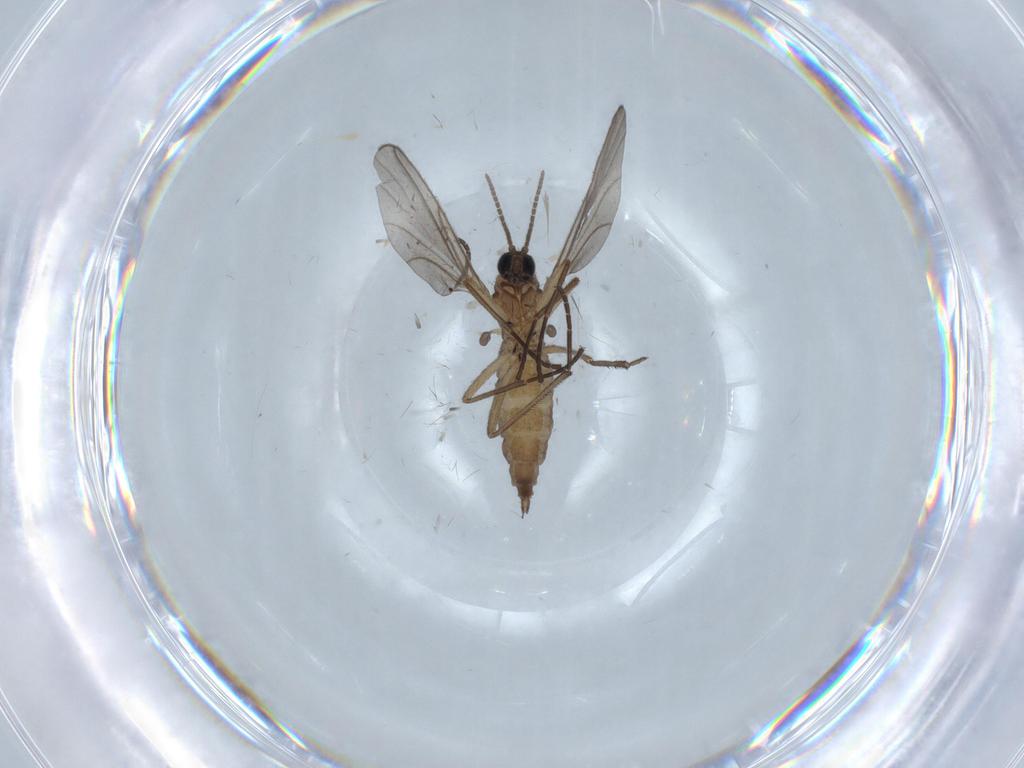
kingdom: Animalia
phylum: Arthropoda
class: Insecta
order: Diptera
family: Sciaridae
